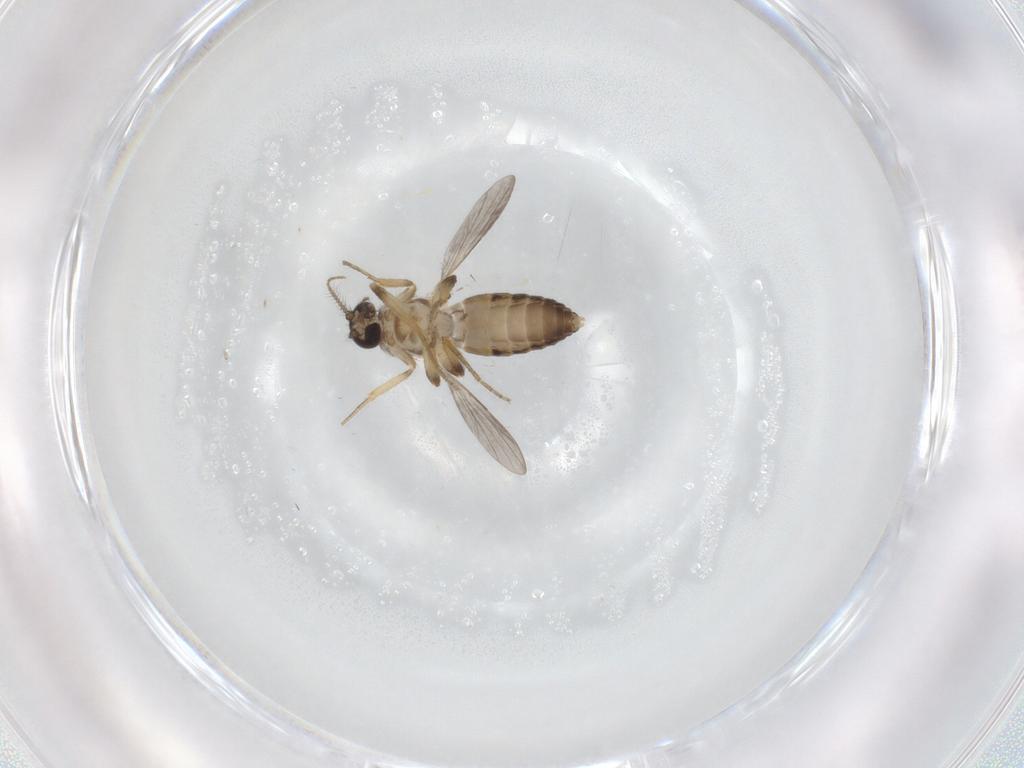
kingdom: Animalia
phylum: Arthropoda
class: Insecta
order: Diptera
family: Ceratopogonidae
